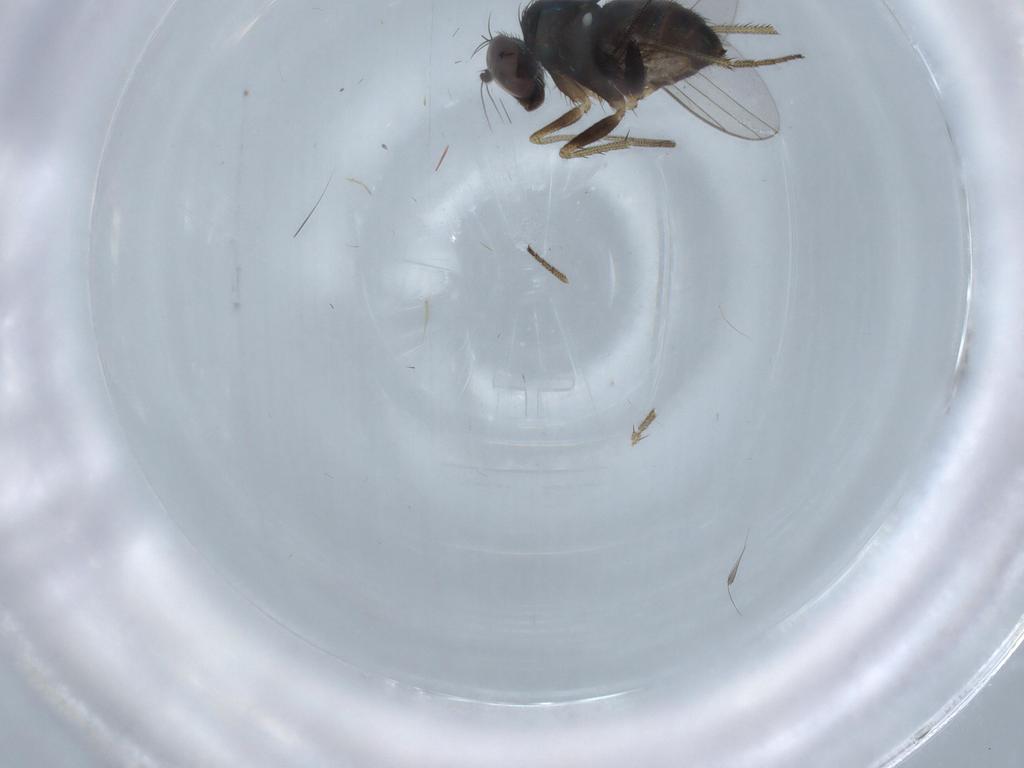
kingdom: Animalia
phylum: Arthropoda
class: Insecta
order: Diptera
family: Dolichopodidae
